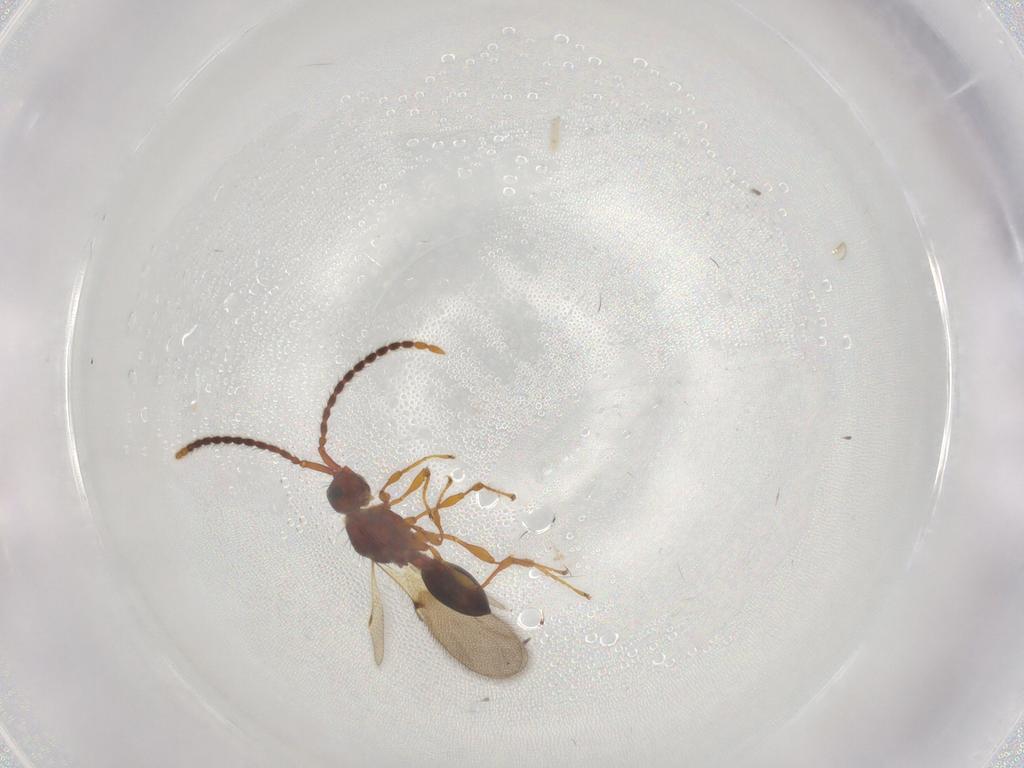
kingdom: Animalia
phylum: Arthropoda
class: Insecta
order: Hymenoptera
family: Diapriidae
